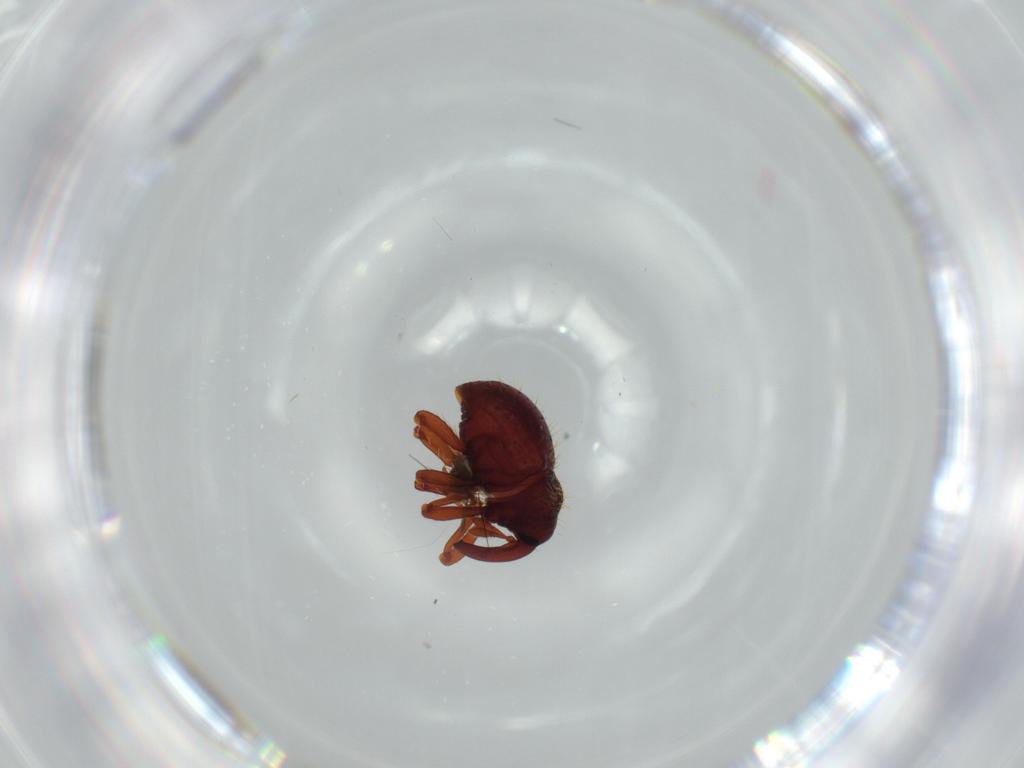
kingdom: Animalia
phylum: Arthropoda
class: Insecta
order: Coleoptera
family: Curculionidae
